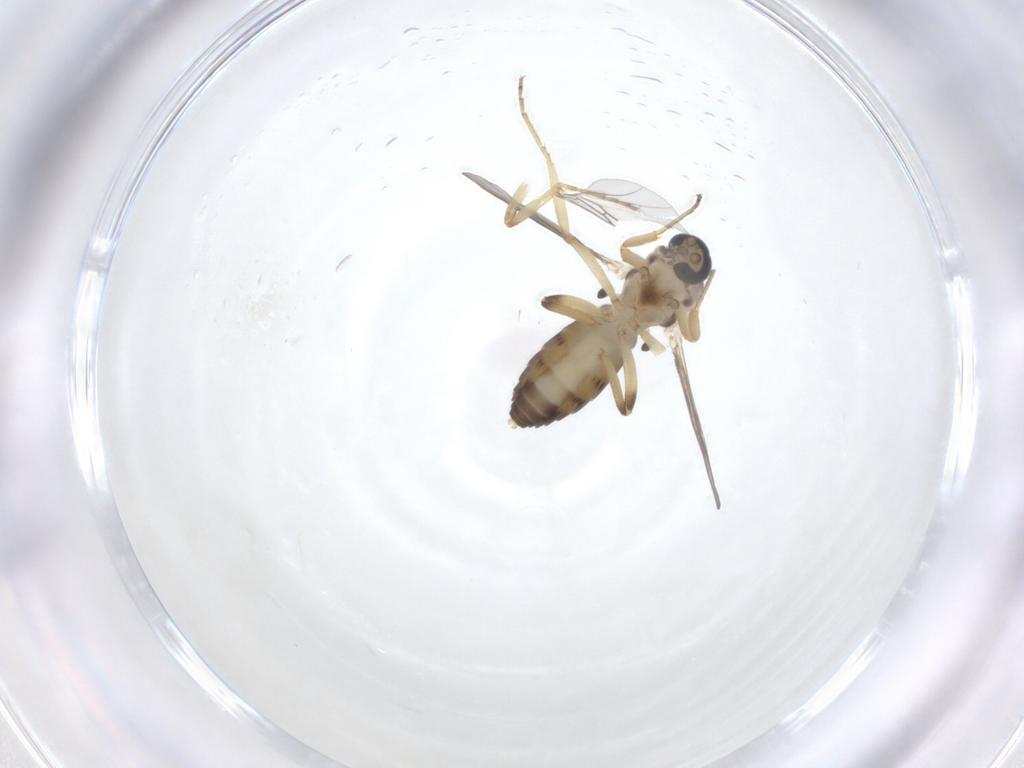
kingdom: Animalia
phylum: Arthropoda
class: Insecta
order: Diptera
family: Ceratopogonidae
